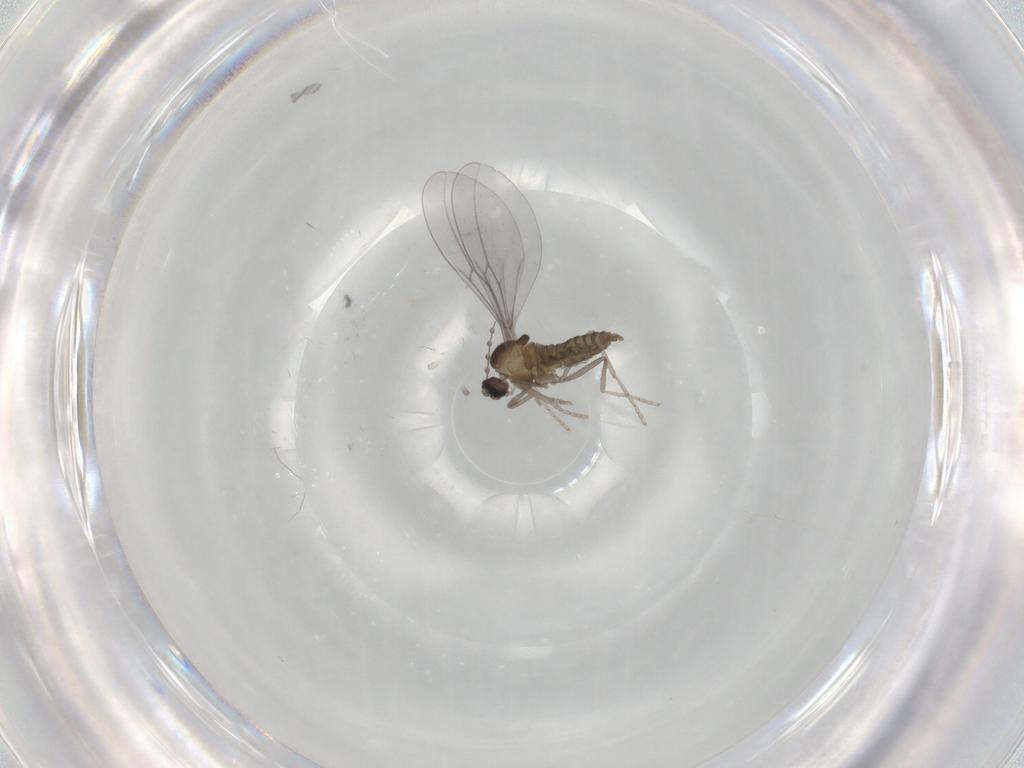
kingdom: Animalia
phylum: Arthropoda
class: Insecta
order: Diptera
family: Cecidomyiidae
